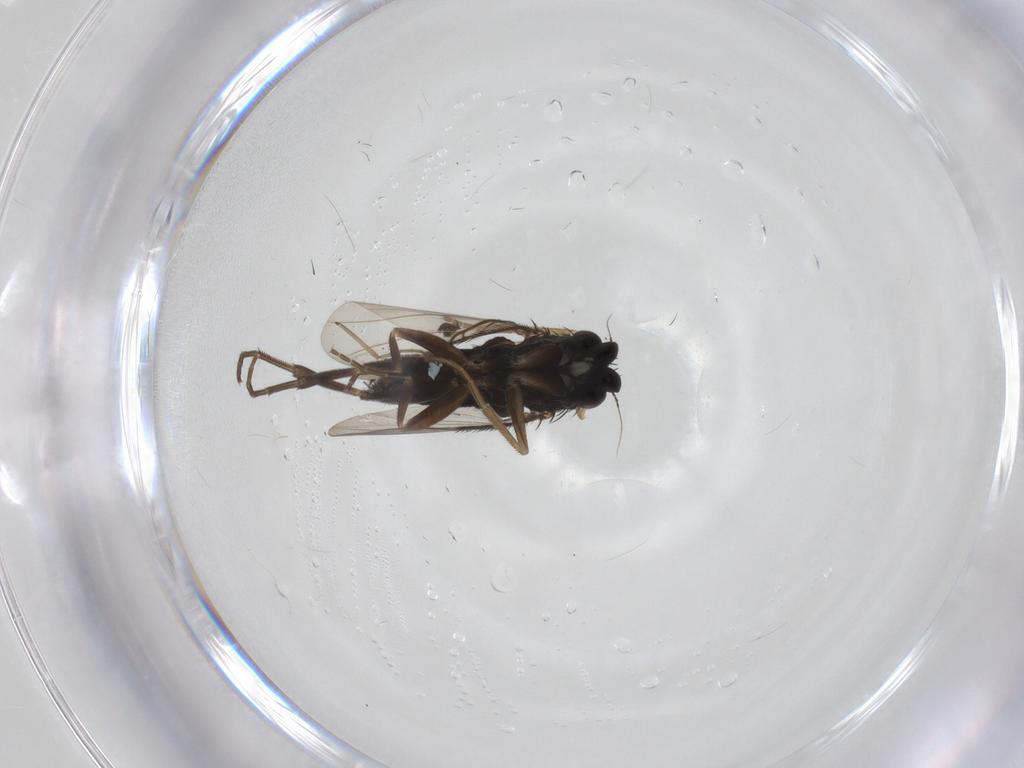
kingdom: Animalia
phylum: Arthropoda
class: Insecta
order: Diptera
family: Phoridae
